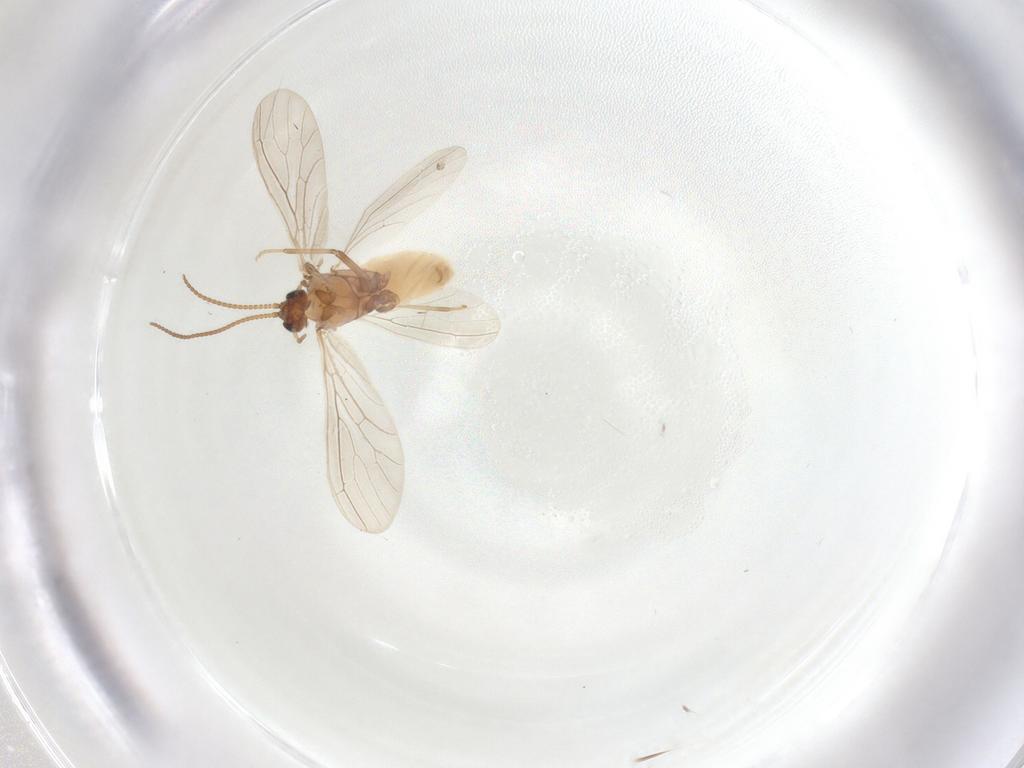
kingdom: Animalia
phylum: Arthropoda
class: Insecta
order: Neuroptera
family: Coniopterygidae
